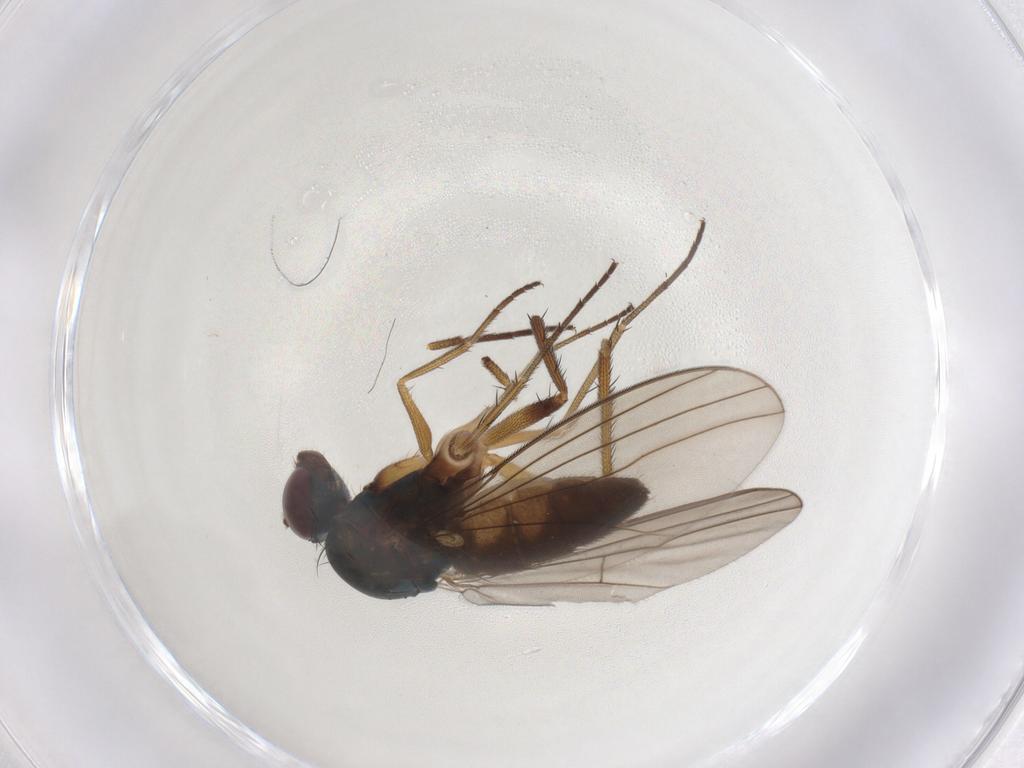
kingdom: Animalia
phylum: Arthropoda
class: Insecta
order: Diptera
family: Dolichopodidae
